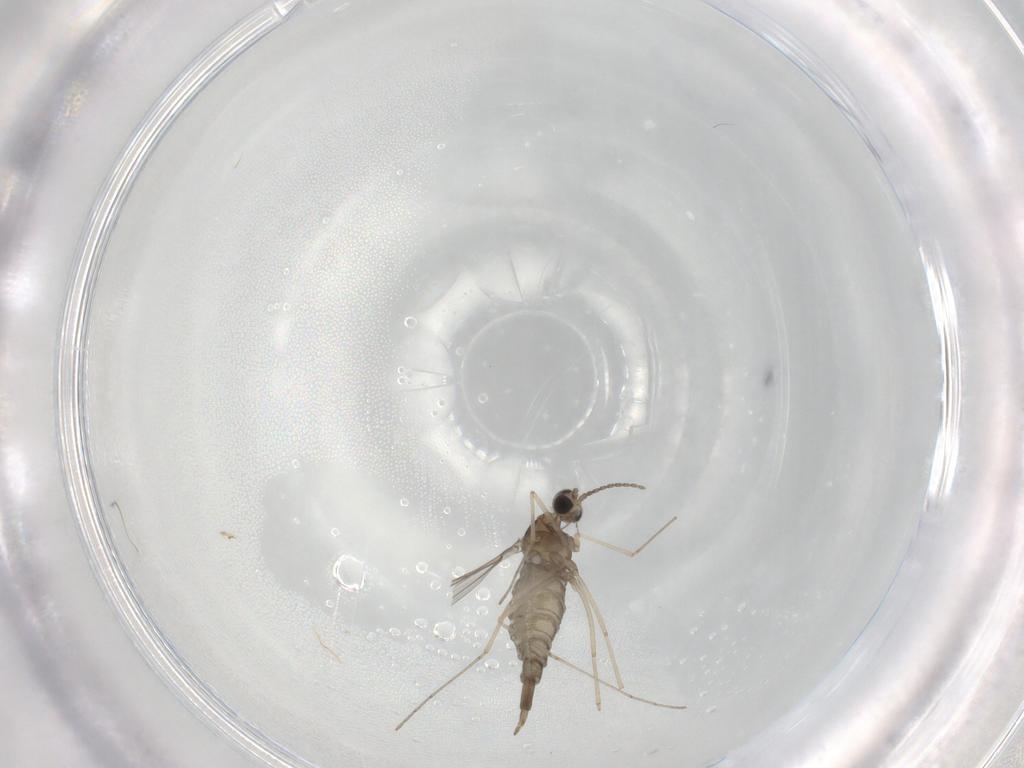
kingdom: Animalia
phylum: Arthropoda
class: Insecta
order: Diptera
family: Cecidomyiidae
